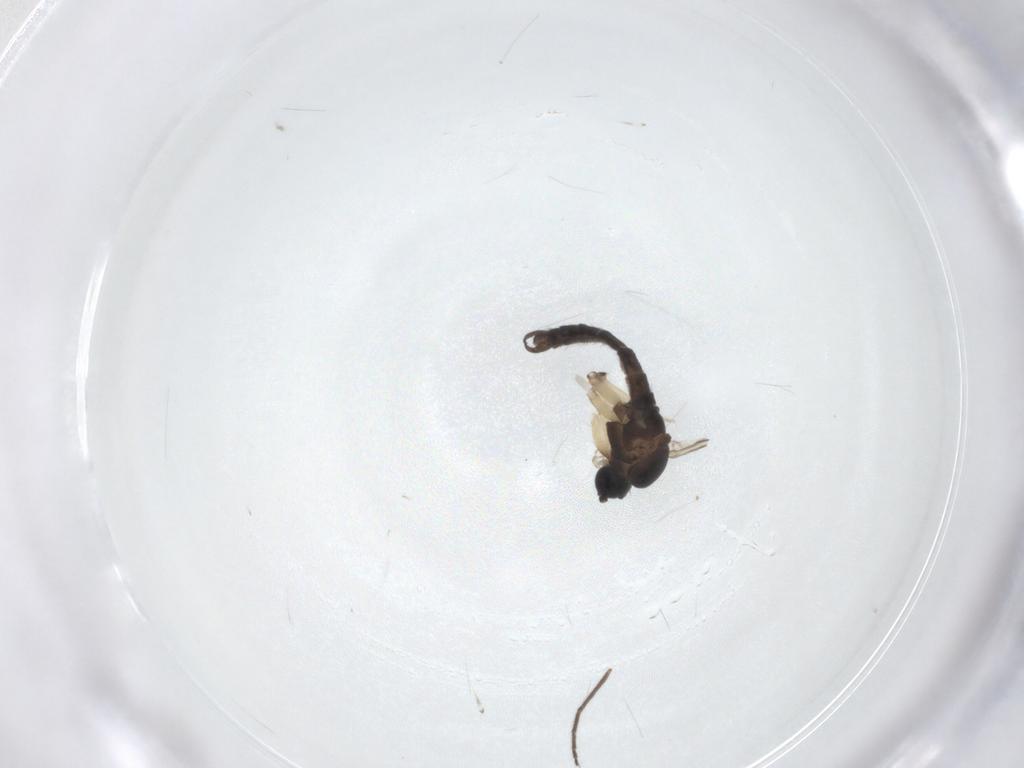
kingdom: Animalia
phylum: Arthropoda
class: Insecta
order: Diptera
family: Sciaridae
